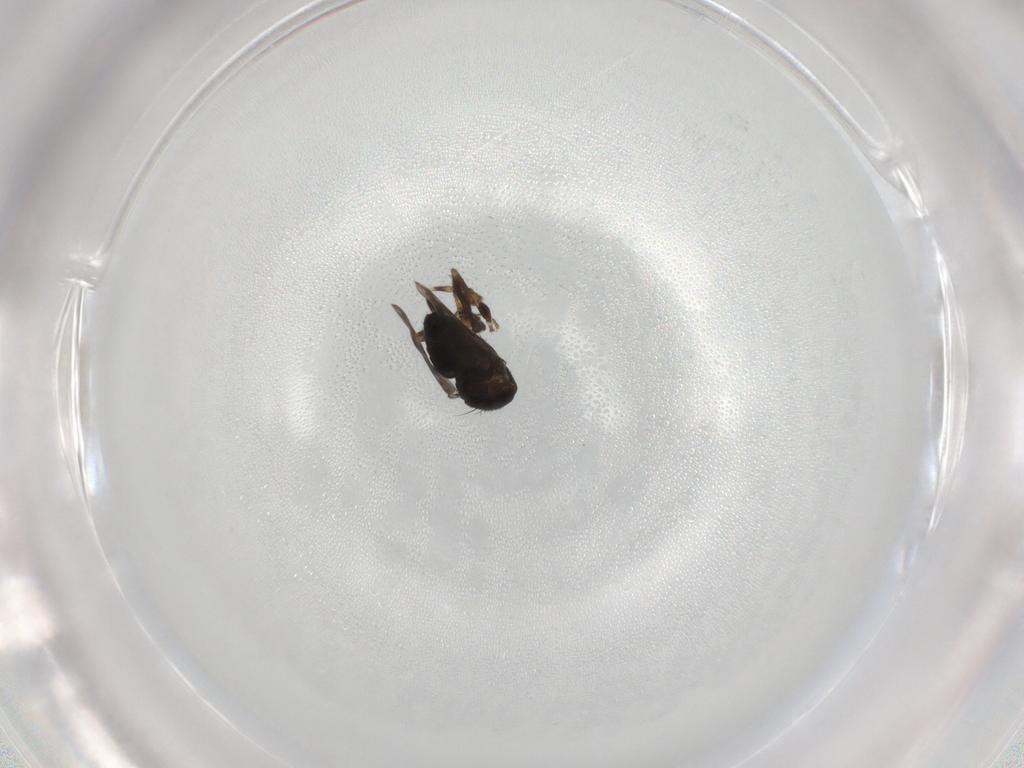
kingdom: Animalia
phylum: Arthropoda
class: Insecta
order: Diptera
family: Sphaeroceridae
